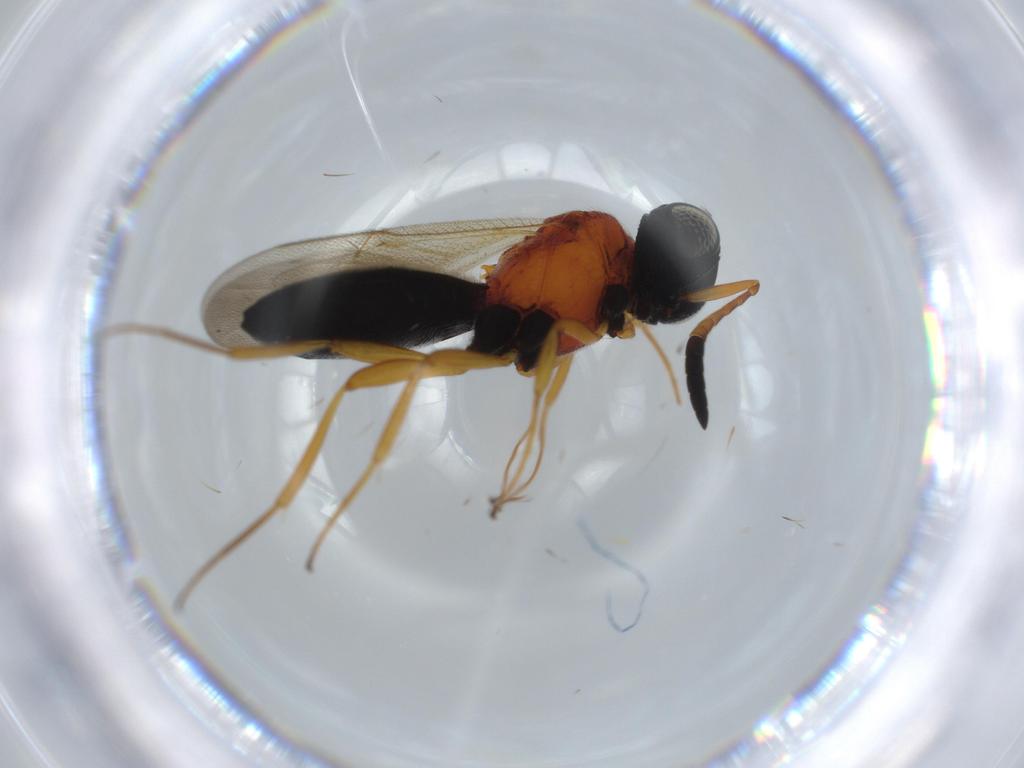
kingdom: Animalia
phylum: Arthropoda
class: Insecta
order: Hymenoptera
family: Scelionidae
